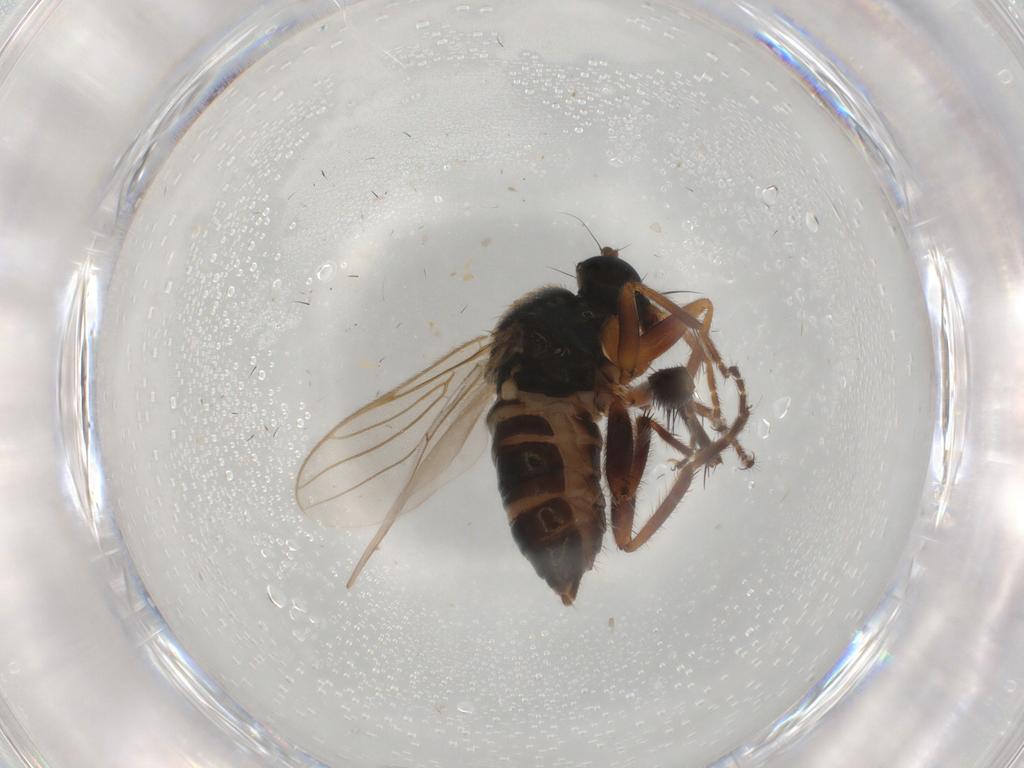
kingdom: Animalia
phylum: Arthropoda
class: Insecta
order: Diptera
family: Hybotidae
